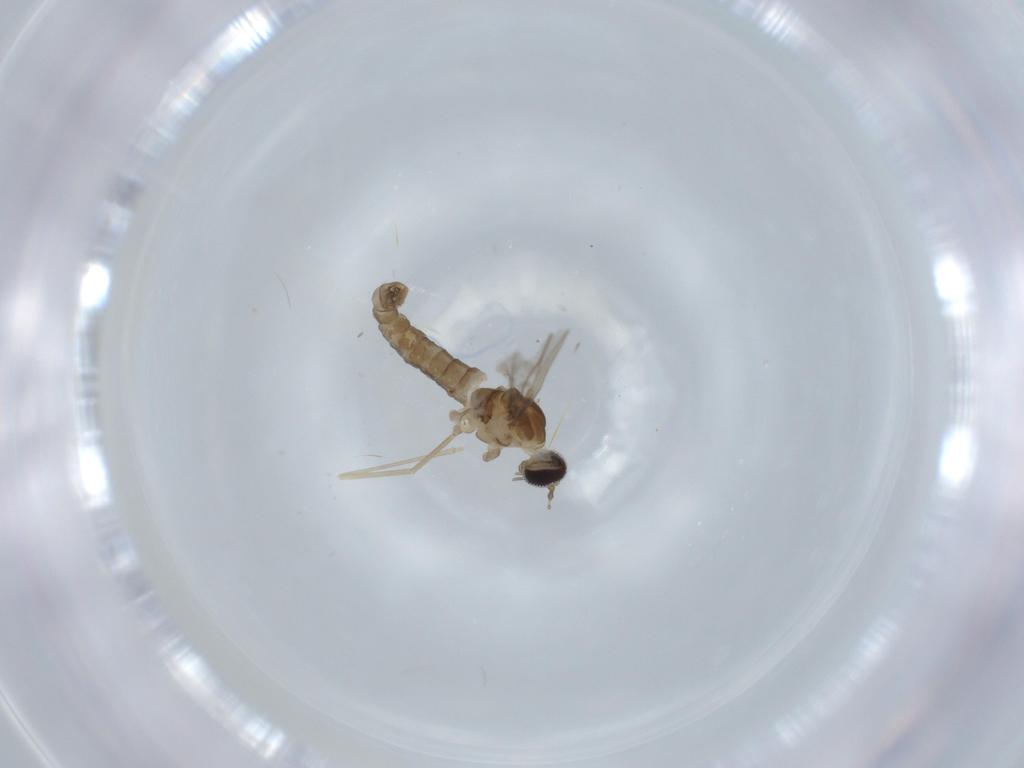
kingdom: Animalia
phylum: Arthropoda
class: Insecta
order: Diptera
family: Cecidomyiidae
